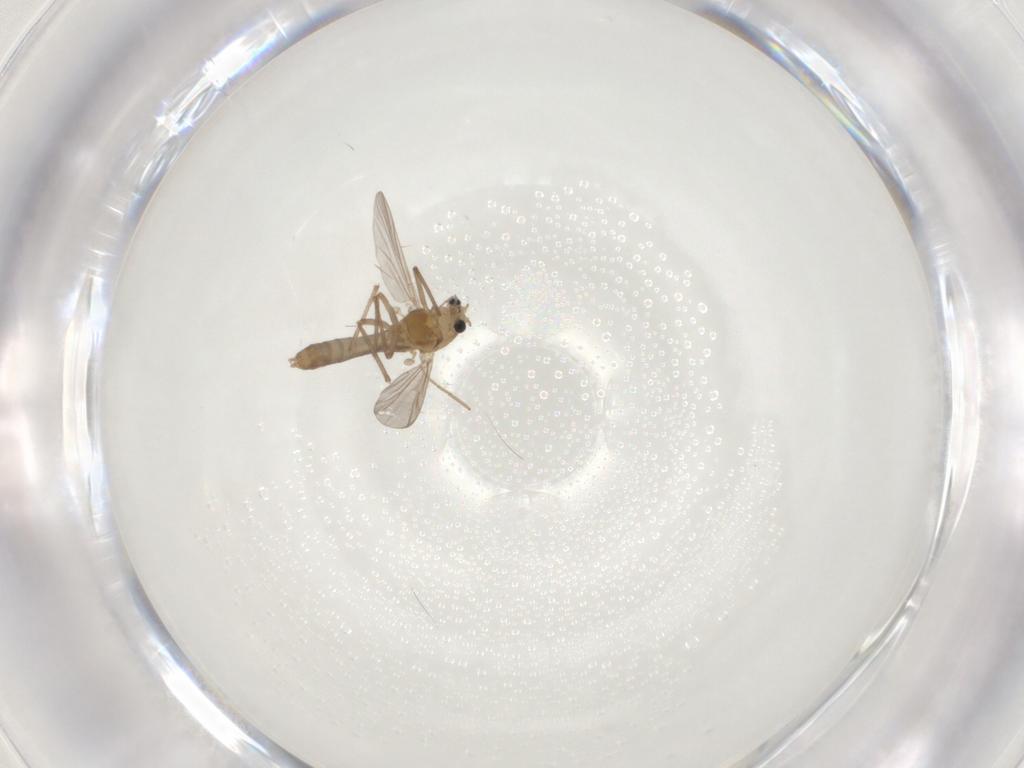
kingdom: Animalia
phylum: Arthropoda
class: Insecta
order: Diptera
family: Chironomidae
